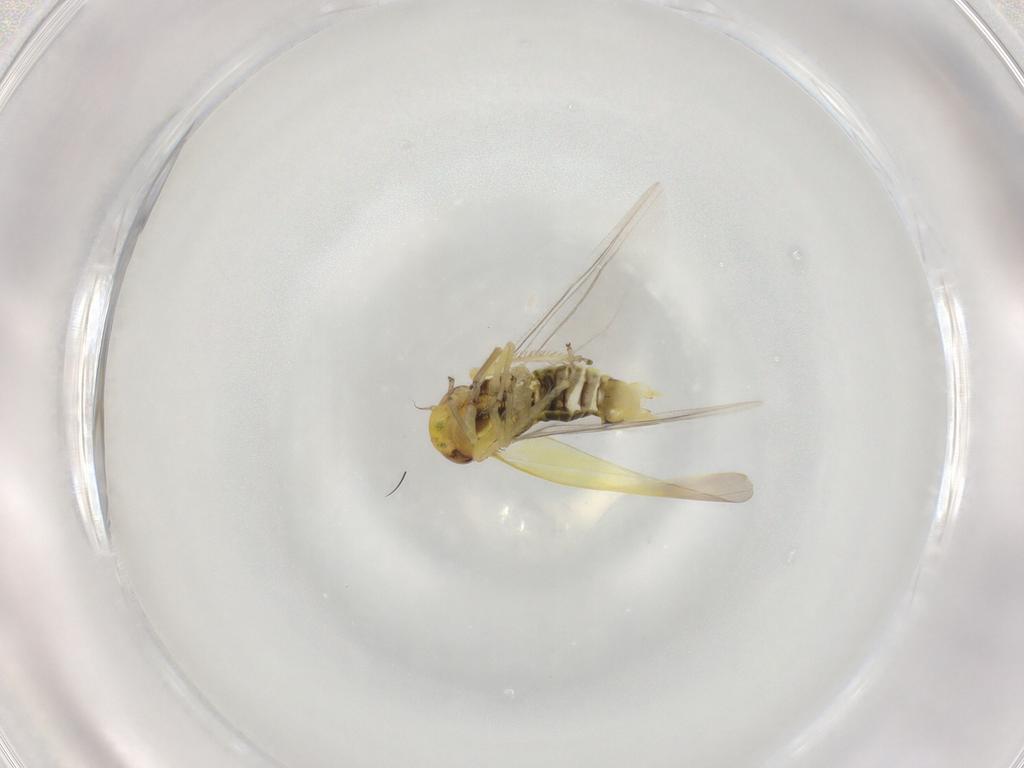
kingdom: Animalia
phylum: Arthropoda
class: Insecta
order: Hemiptera
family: Cicadellidae
